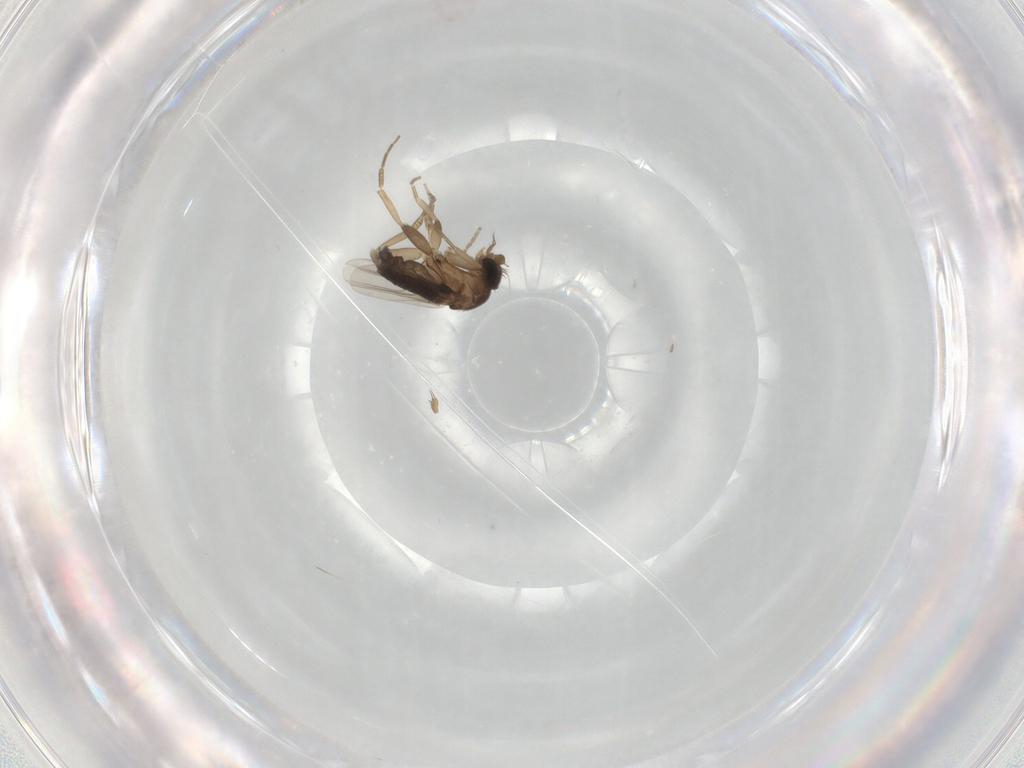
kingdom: Animalia
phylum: Arthropoda
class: Insecta
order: Diptera
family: Phoridae
